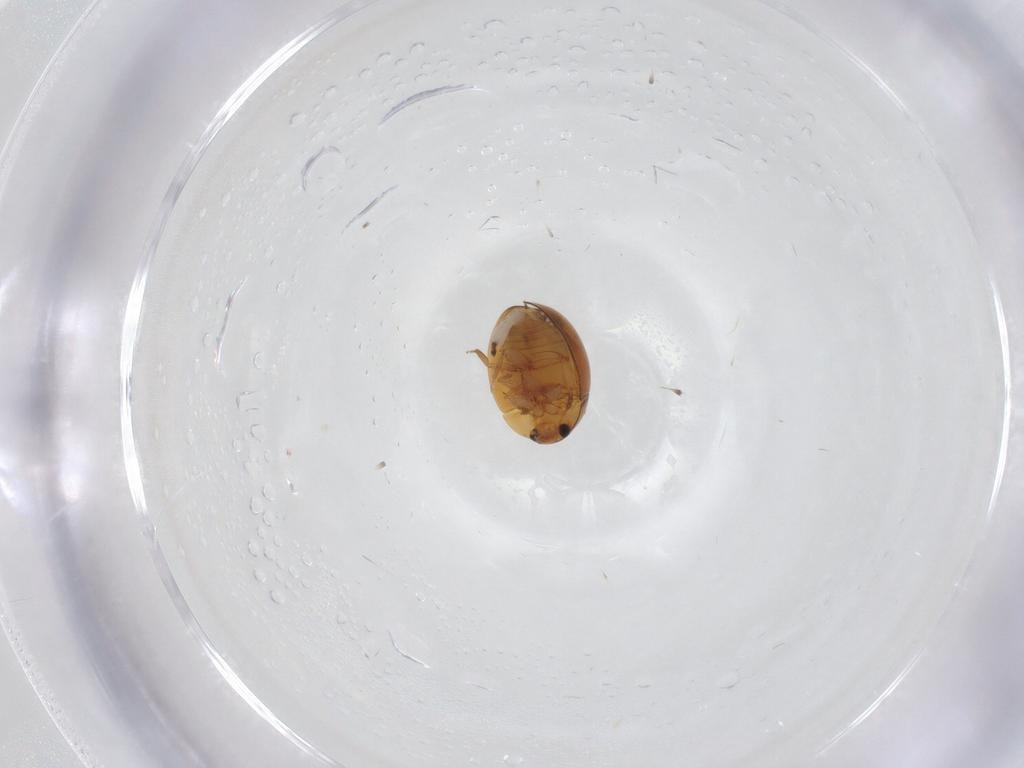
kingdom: Animalia
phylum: Arthropoda
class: Insecta
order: Coleoptera
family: Phalacridae
